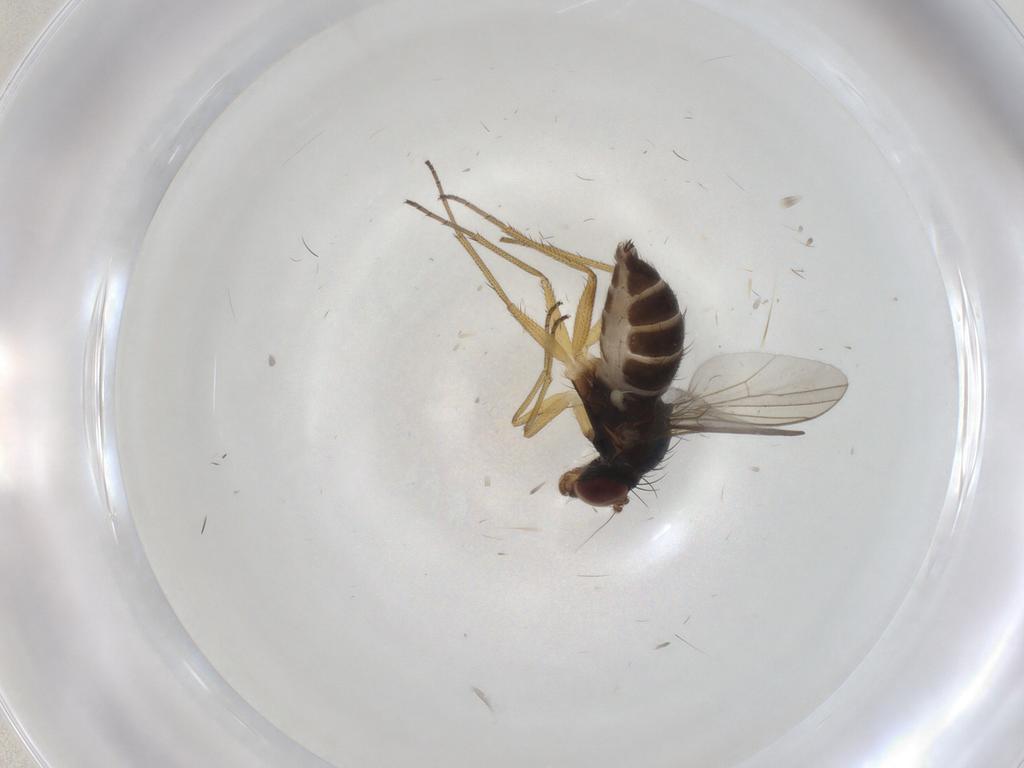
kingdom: Animalia
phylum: Arthropoda
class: Insecta
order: Diptera
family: Dolichopodidae
